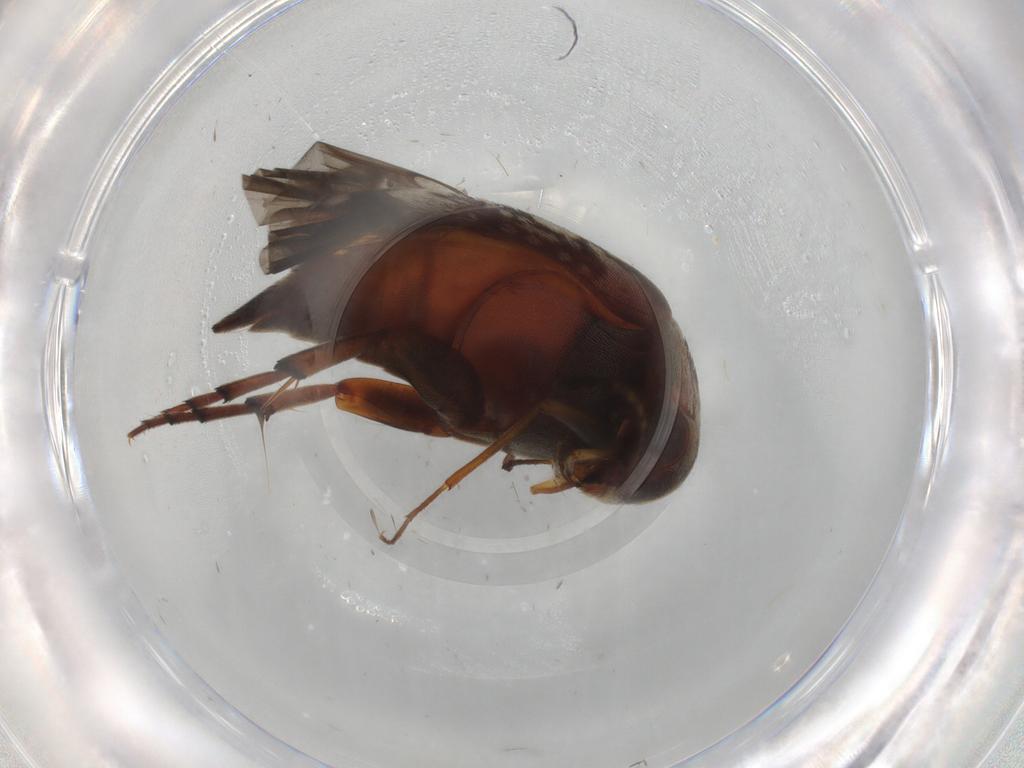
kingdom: Animalia
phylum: Arthropoda
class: Insecta
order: Coleoptera
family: Mordellidae
